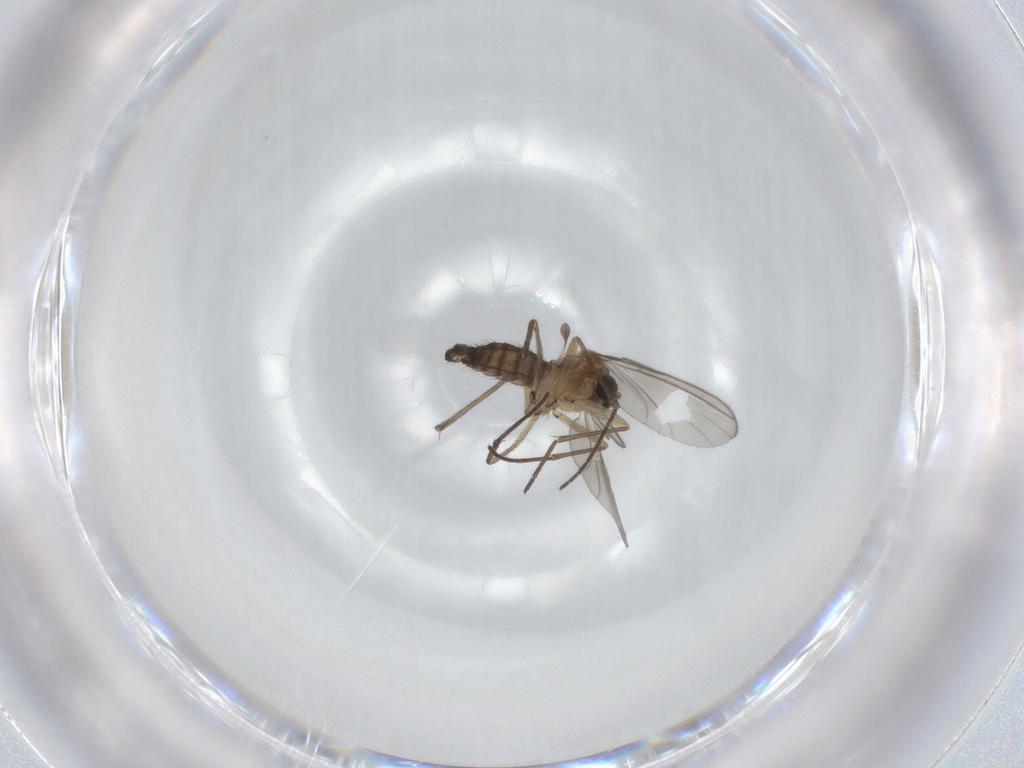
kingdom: Animalia
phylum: Arthropoda
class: Insecta
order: Diptera
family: Sciaridae
